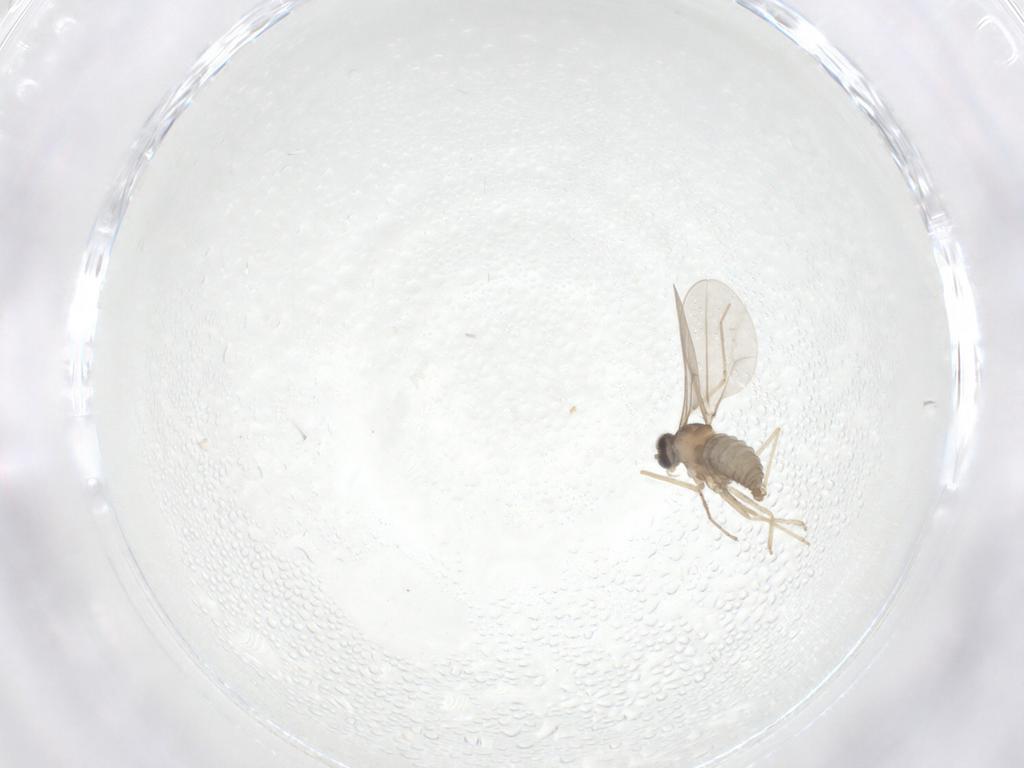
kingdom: Animalia
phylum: Arthropoda
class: Insecta
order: Diptera
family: Cecidomyiidae
